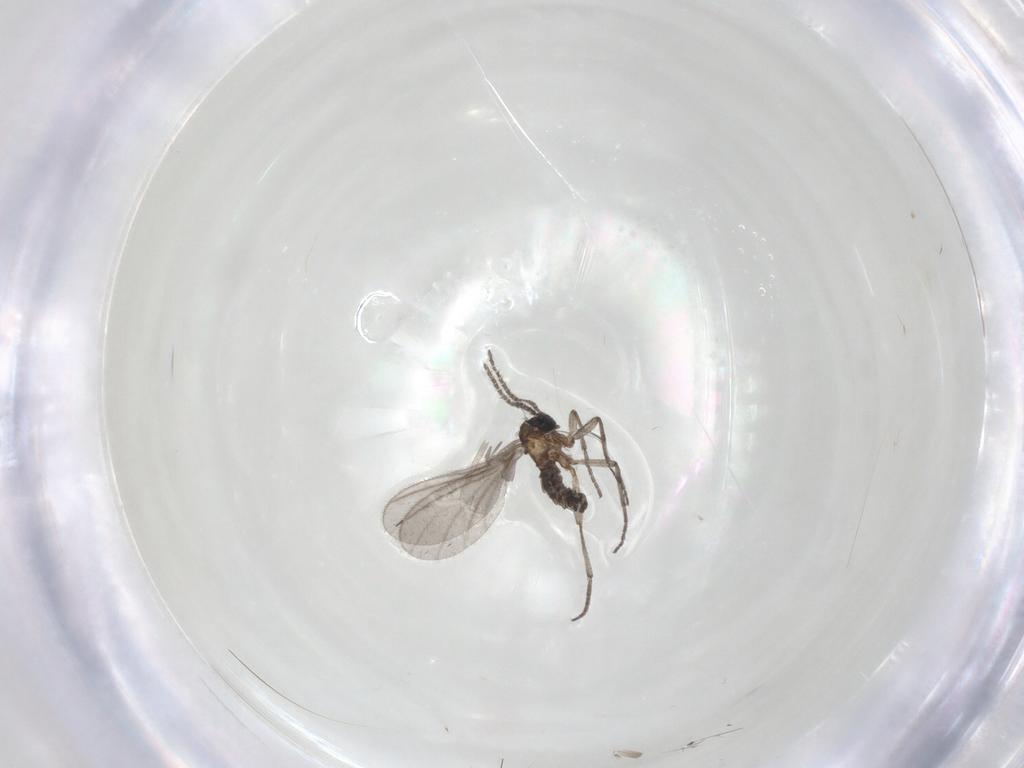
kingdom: Animalia
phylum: Arthropoda
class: Insecta
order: Diptera
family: Sciaridae
